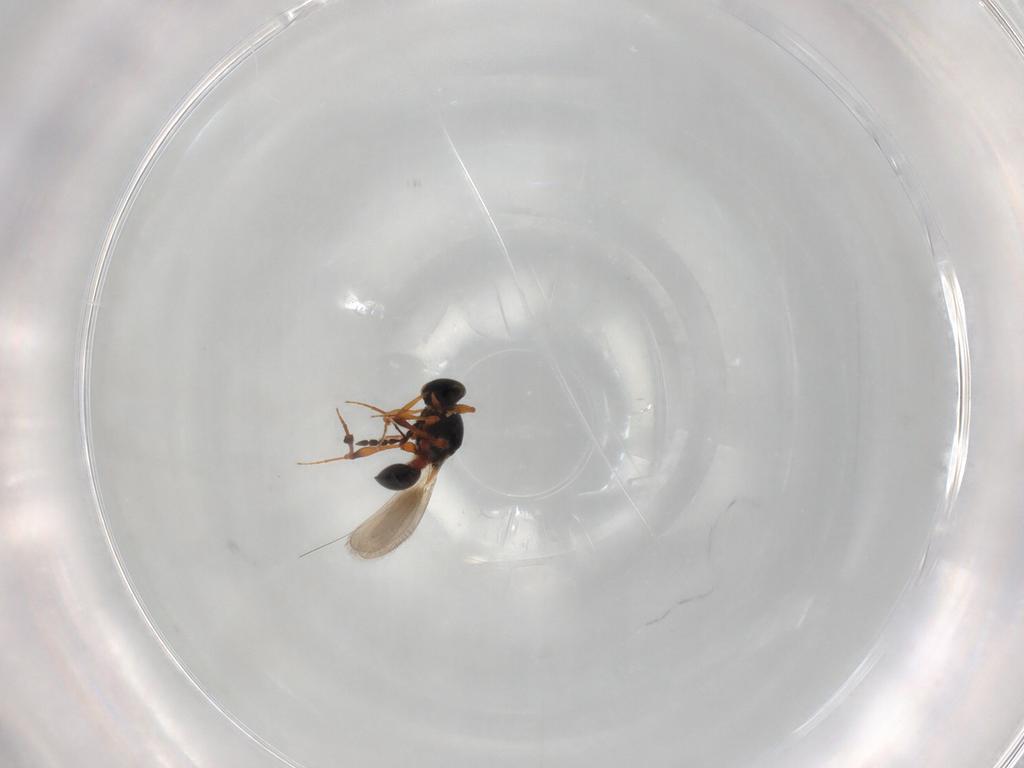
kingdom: Animalia
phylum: Arthropoda
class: Insecta
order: Hymenoptera
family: Platygastridae
